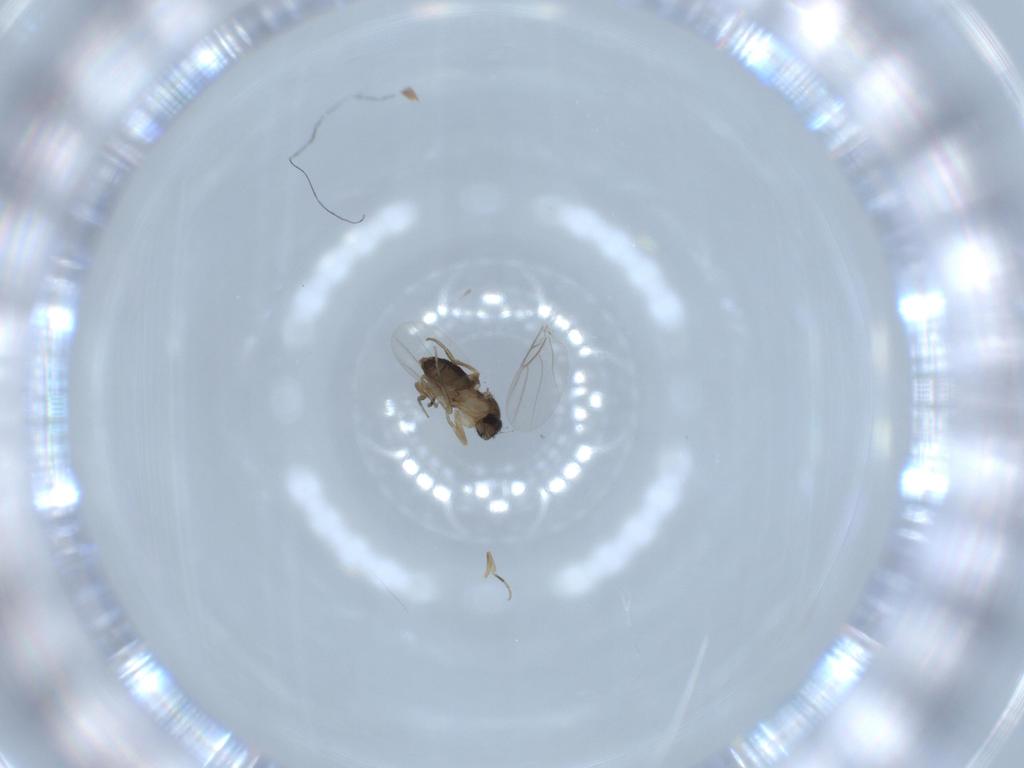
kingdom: Animalia
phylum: Arthropoda
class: Insecta
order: Diptera
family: Phoridae
